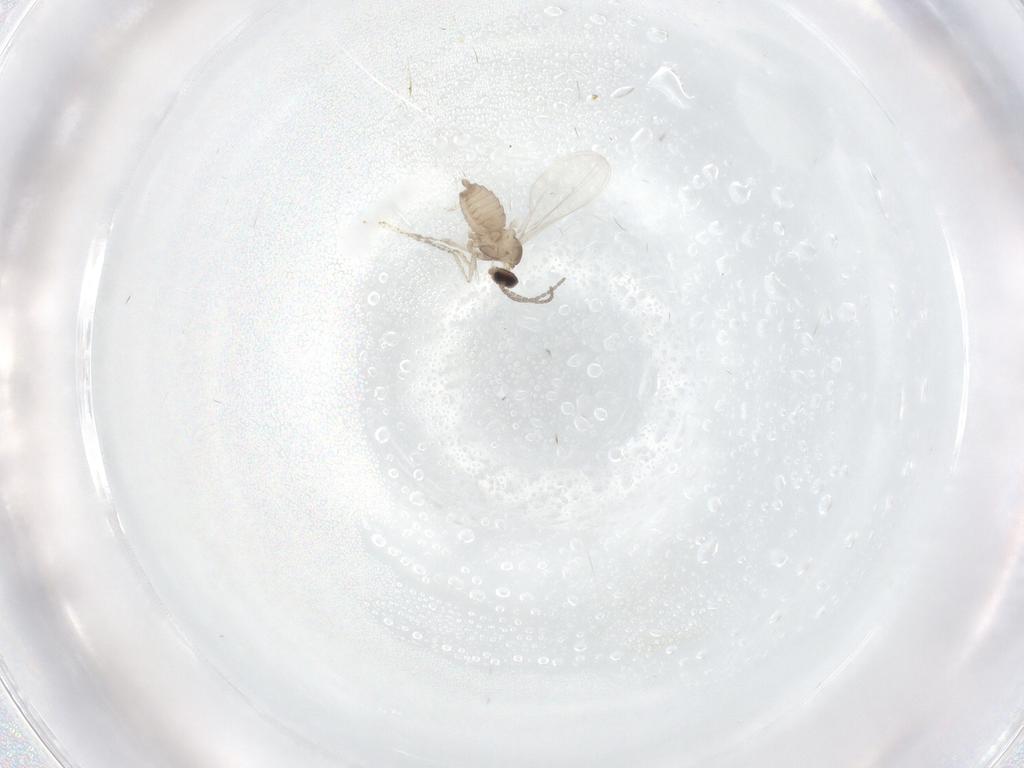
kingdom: Animalia
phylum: Arthropoda
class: Insecta
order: Diptera
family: Cecidomyiidae
